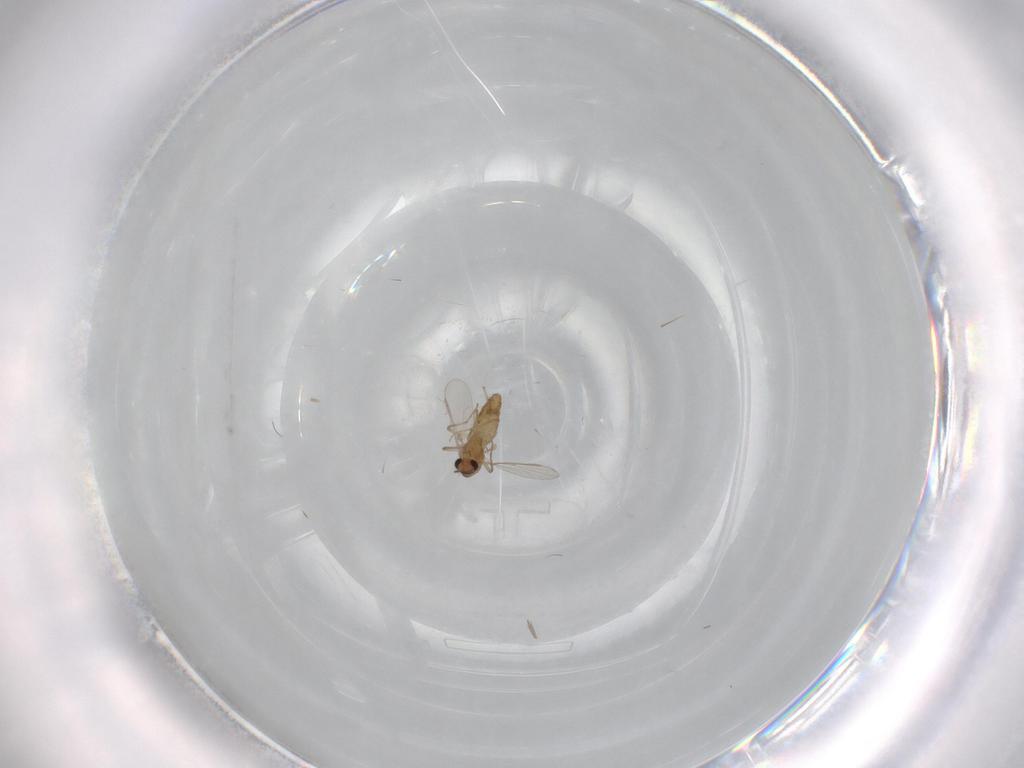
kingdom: Animalia
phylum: Arthropoda
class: Insecta
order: Diptera
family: Chironomidae
